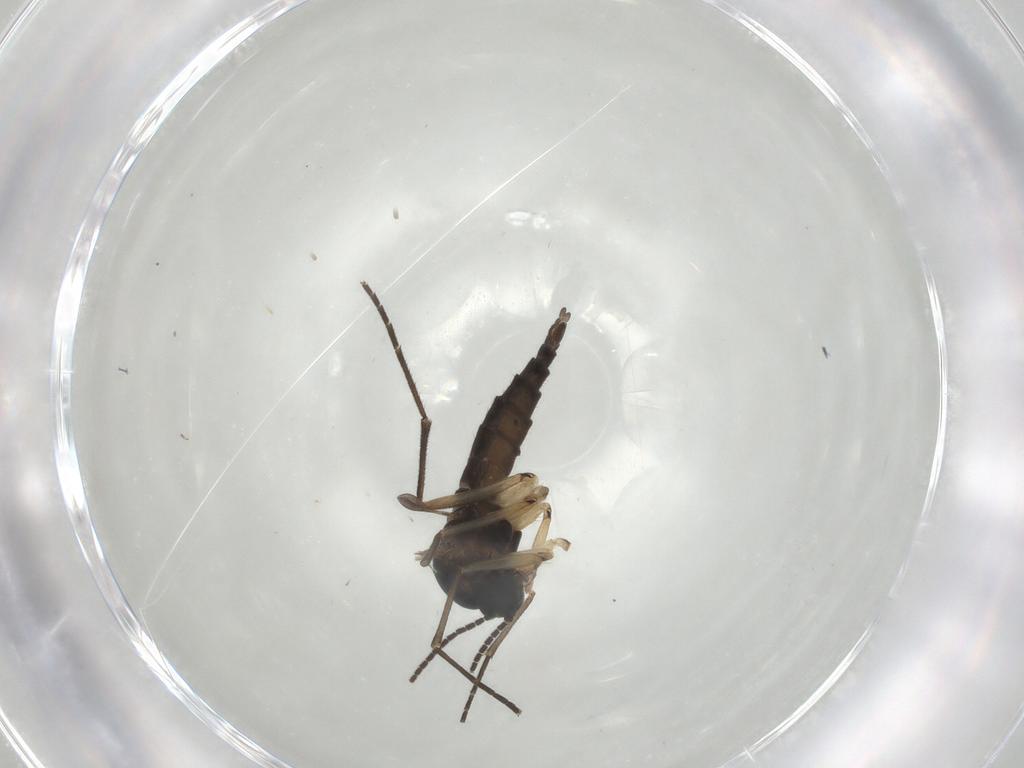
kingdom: Animalia
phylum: Arthropoda
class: Insecta
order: Diptera
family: Sciaridae
